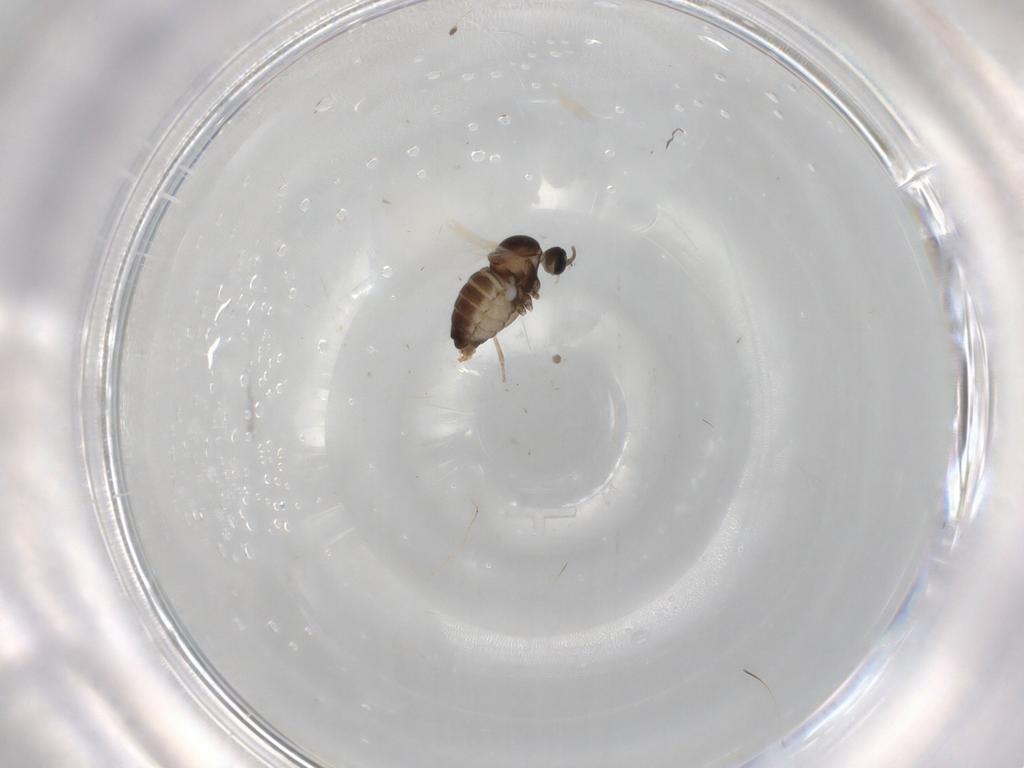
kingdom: Animalia
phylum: Arthropoda
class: Insecta
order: Diptera
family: Cecidomyiidae
